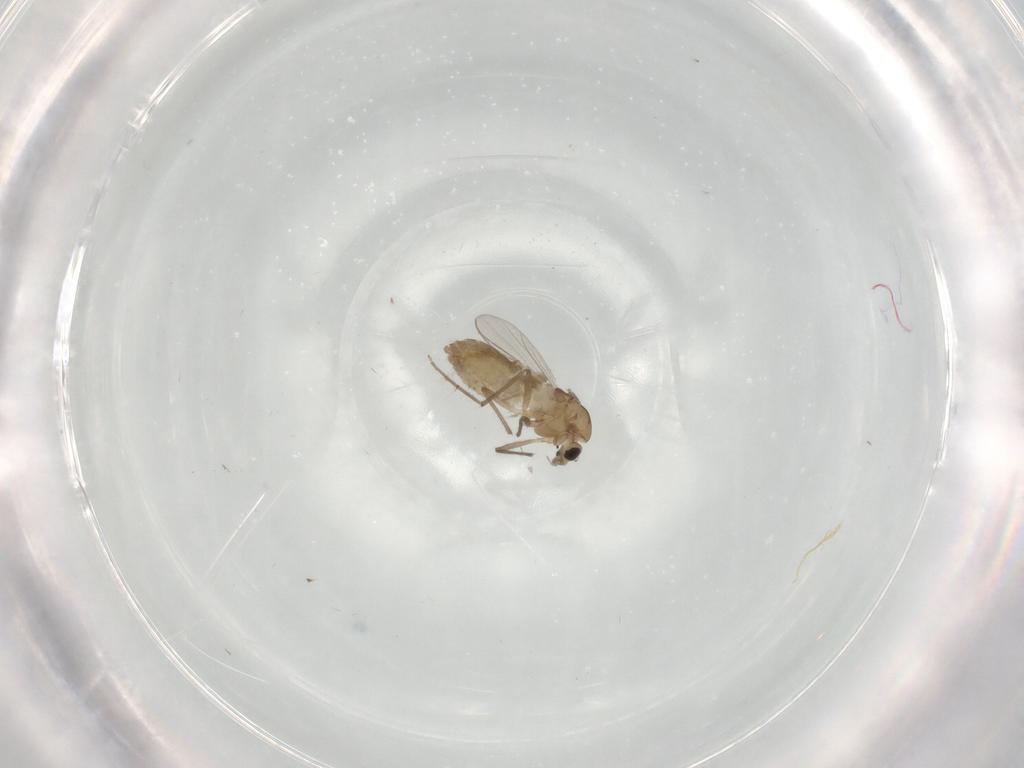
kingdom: Animalia
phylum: Arthropoda
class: Insecta
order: Diptera
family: Chironomidae
